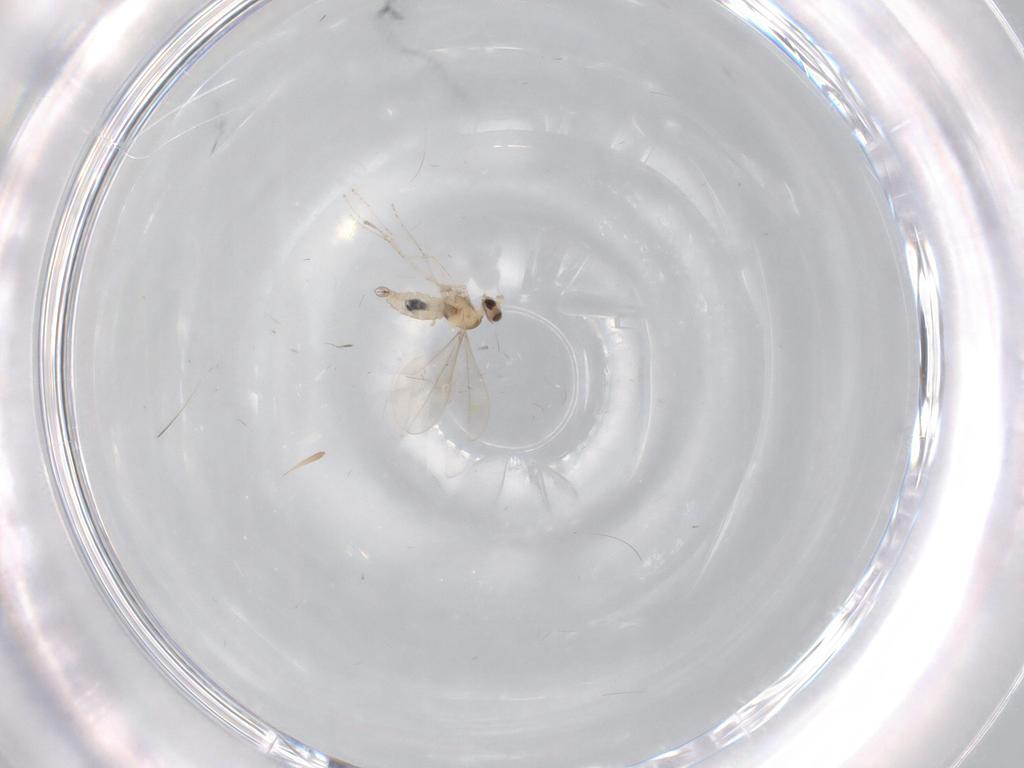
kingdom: Animalia
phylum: Arthropoda
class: Insecta
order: Diptera
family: Cecidomyiidae
